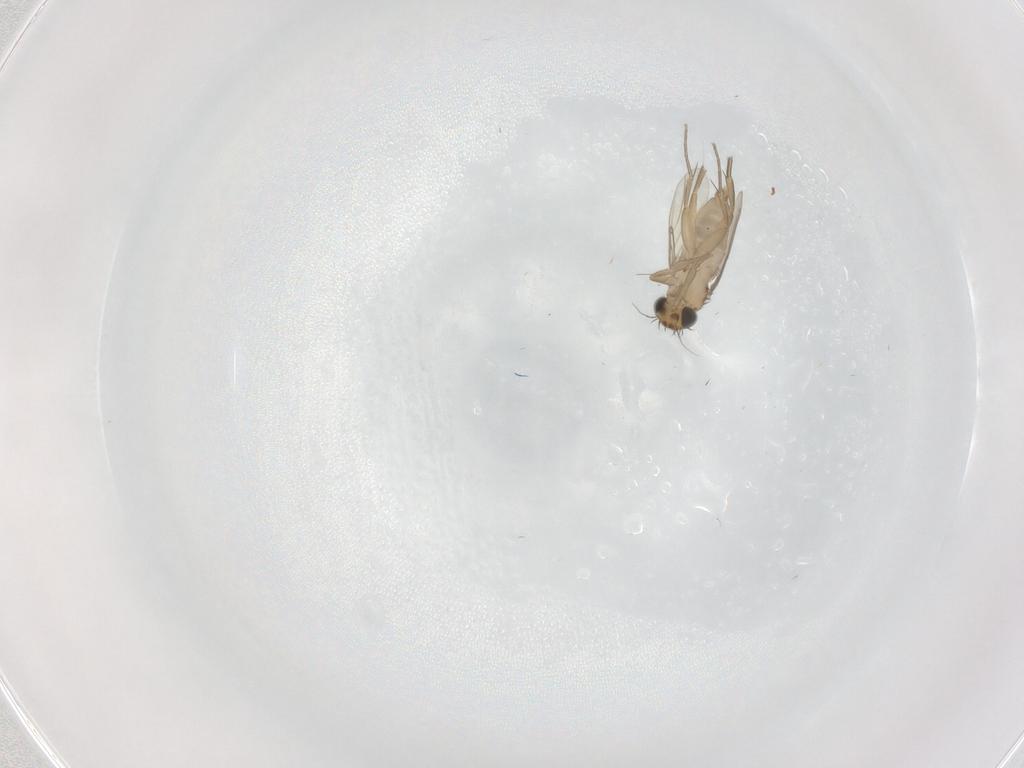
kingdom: Animalia
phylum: Arthropoda
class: Insecta
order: Diptera
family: Phoridae
